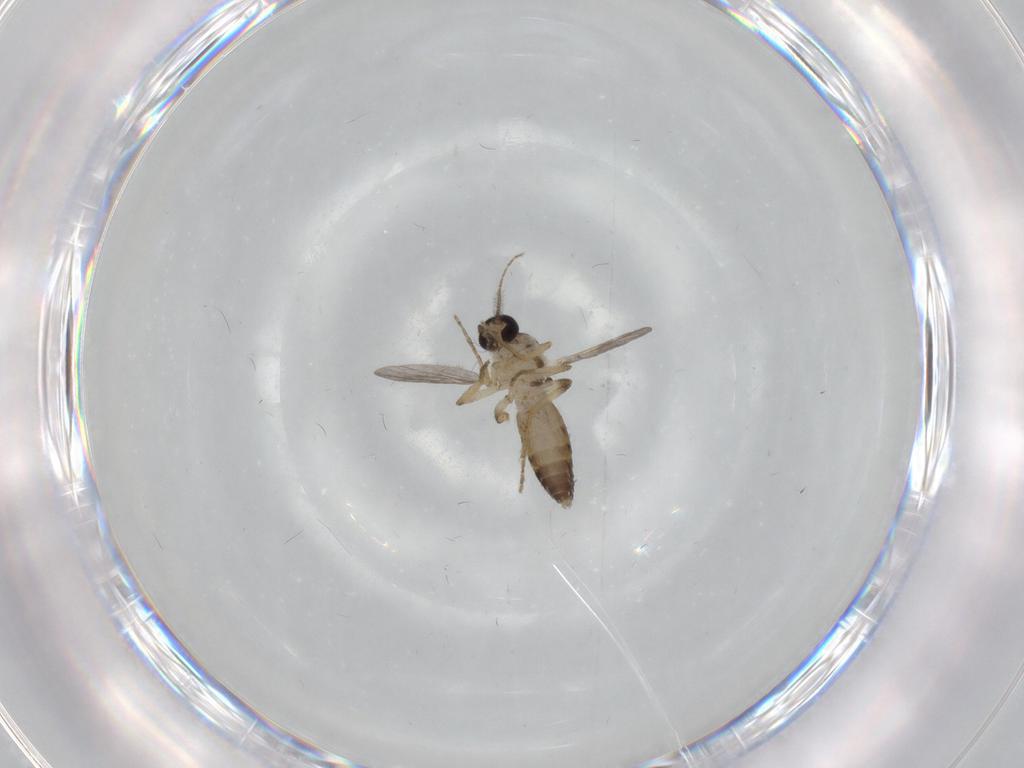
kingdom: Animalia
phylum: Arthropoda
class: Insecta
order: Diptera
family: Ceratopogonidae
